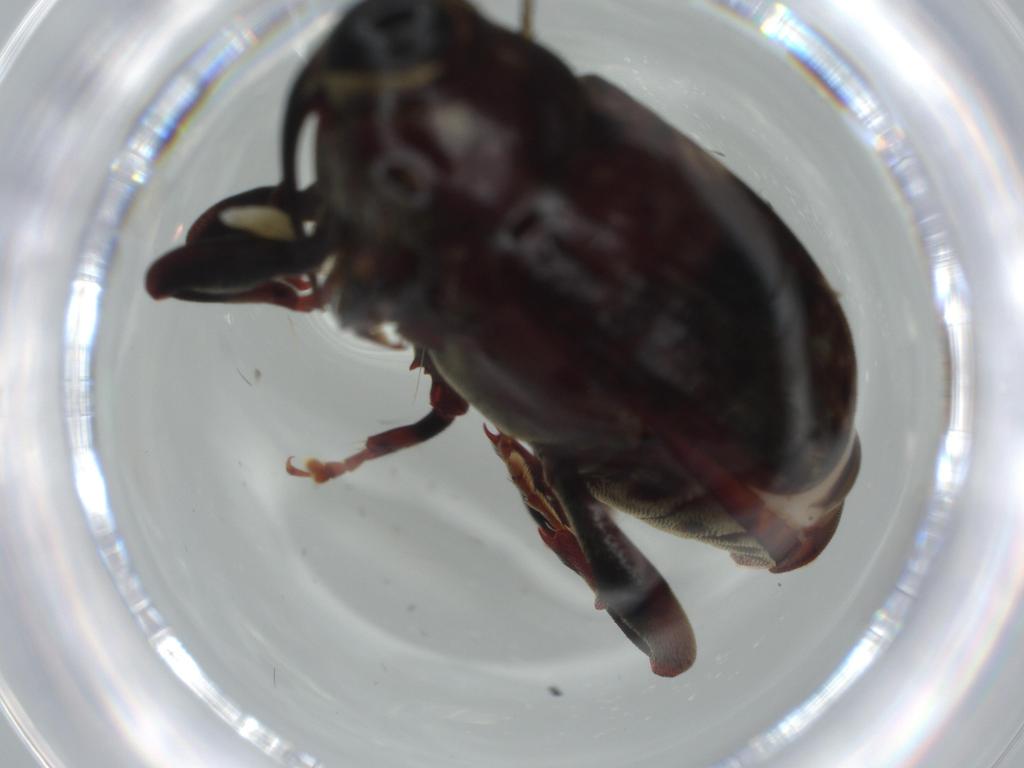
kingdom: Animalia
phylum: Arthropoda
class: Insecta
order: Coleoptera
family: Curculionidae
